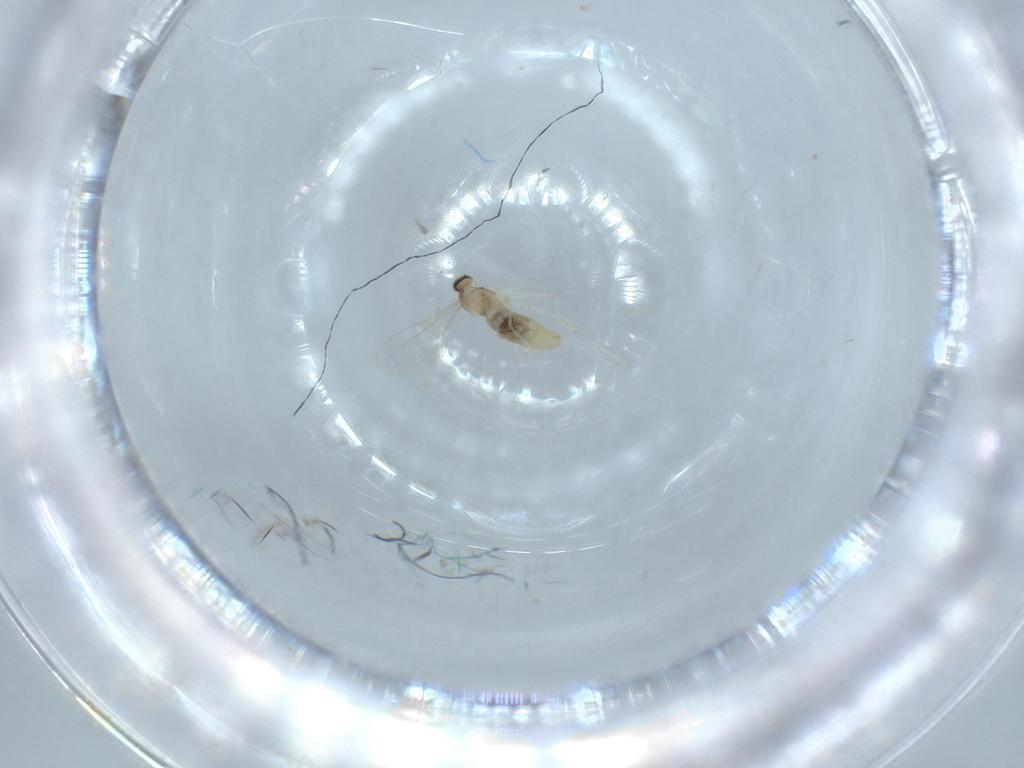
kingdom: Animalia
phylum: Arthropoda
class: Insecta
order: Diptera
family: Cecidomyiidae
